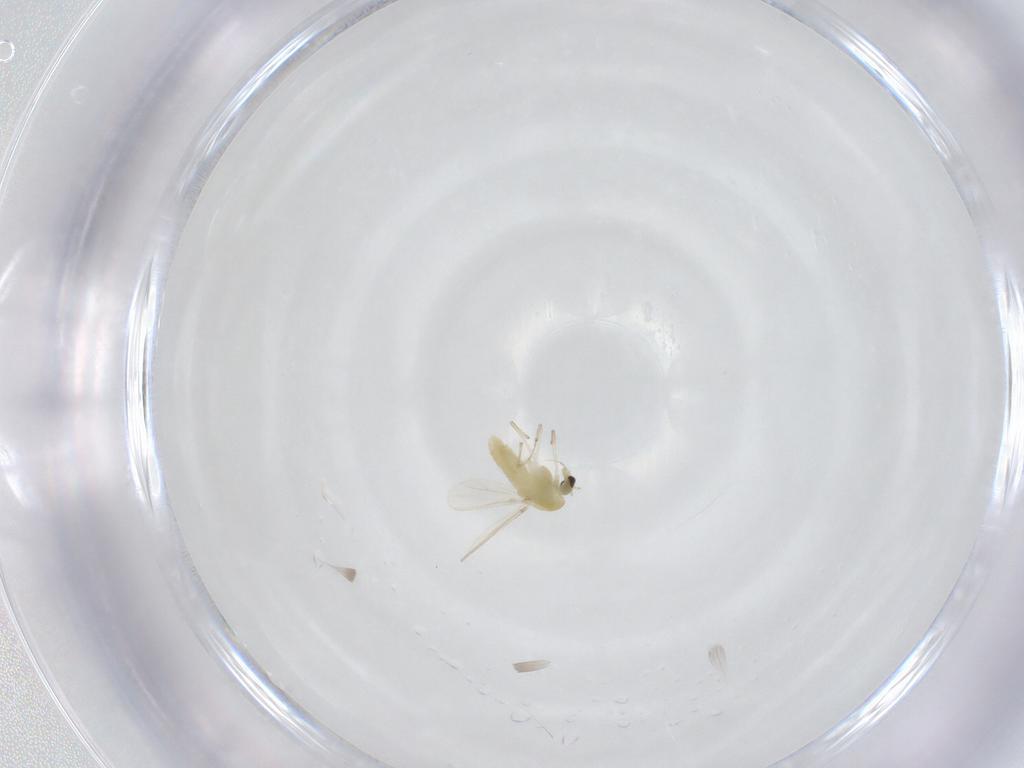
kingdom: Animalia
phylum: Arthropoda
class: Insecta
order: Diptera
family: Chironomidae
